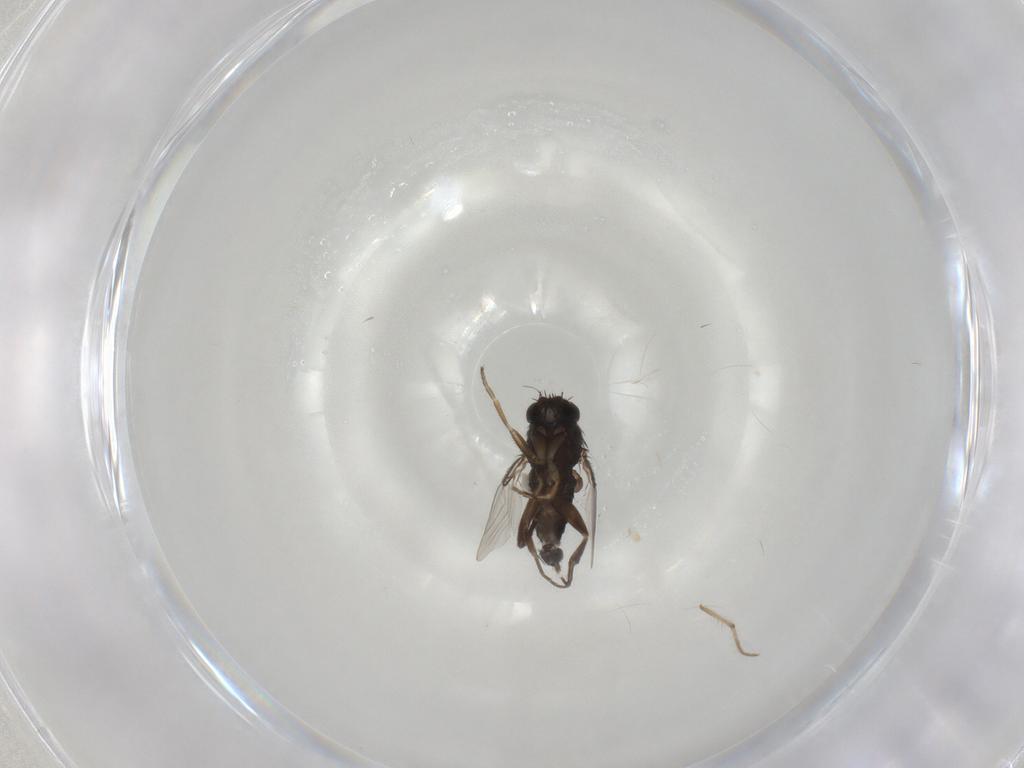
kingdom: Animalia
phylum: Arthropoda
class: Insecta
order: Diptera
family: Phoridae
